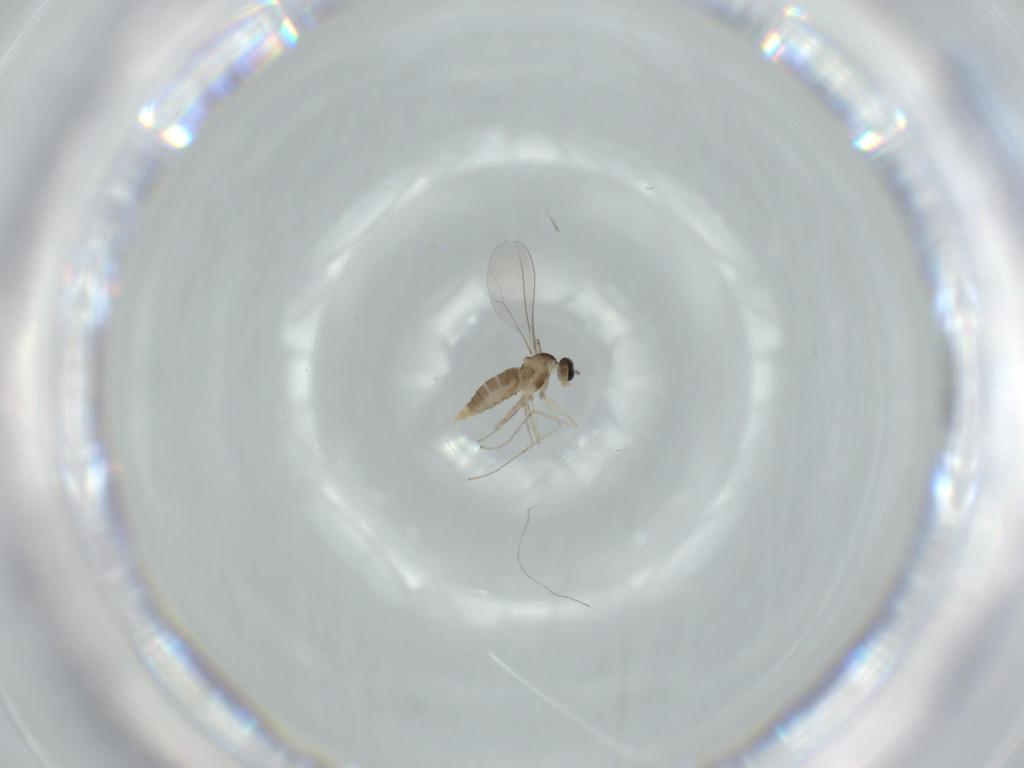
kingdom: Animalia
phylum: Arthropoda
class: Insecta
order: Diptera
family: Cecidomyiidae
